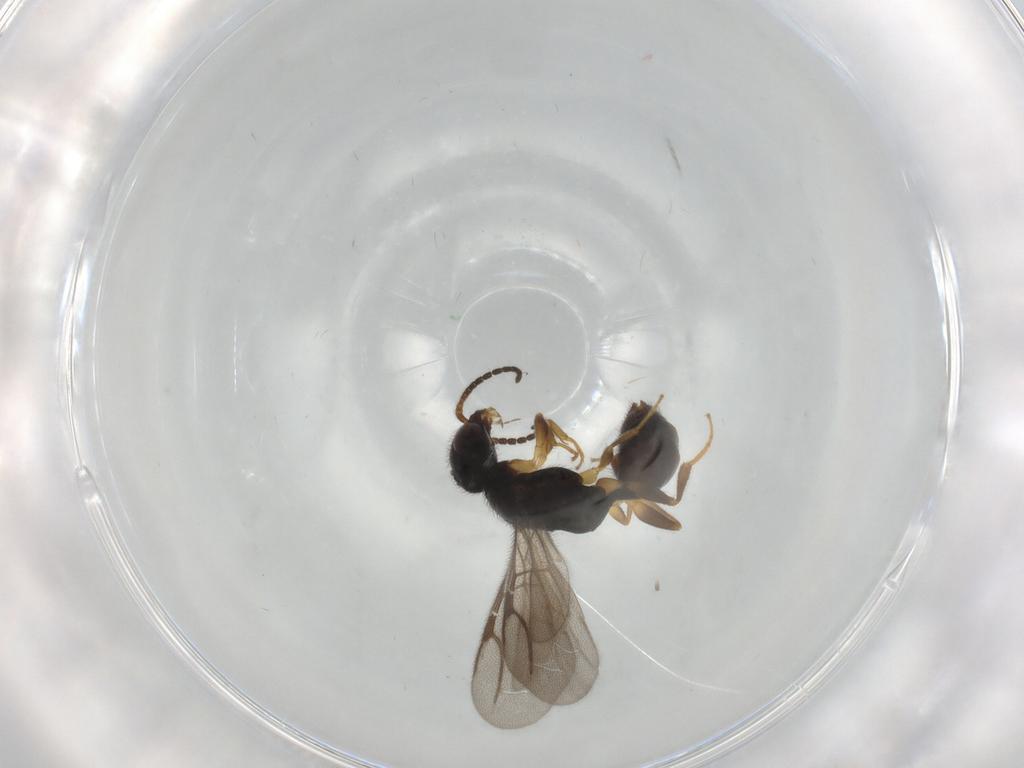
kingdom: Animalia
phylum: Arthropoda
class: Insecta
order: Hymenoptera
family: Bethylidae
